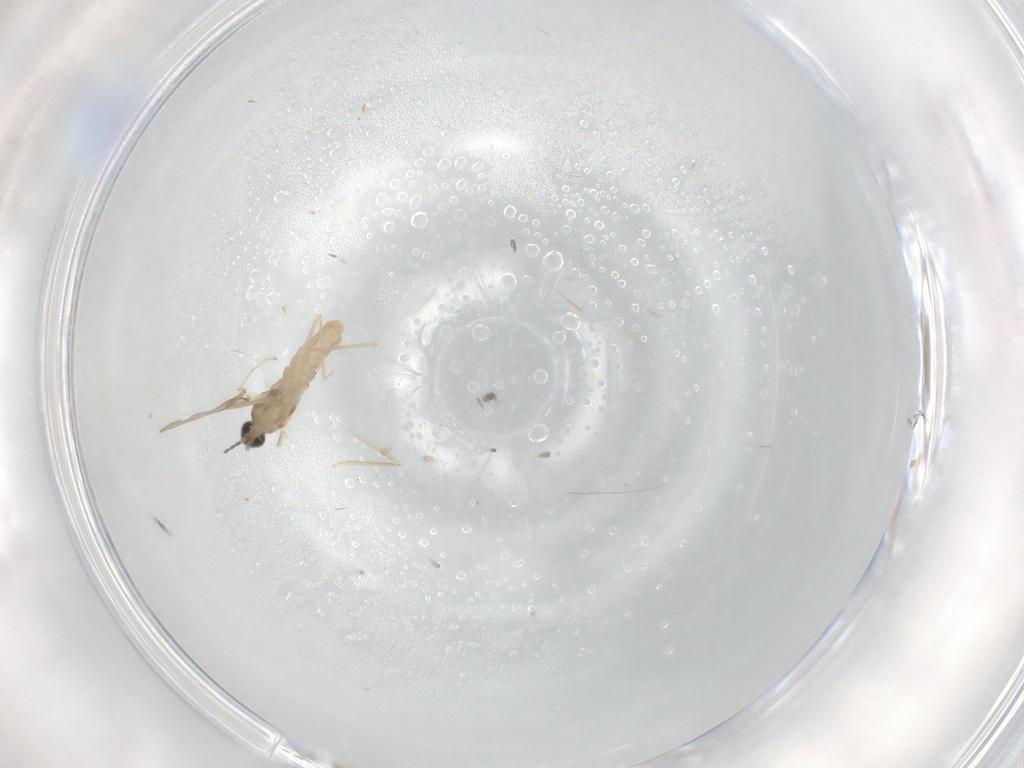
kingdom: Animalia
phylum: Arthropoda
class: Insecta
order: Diptera
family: Cecidomyiidae
